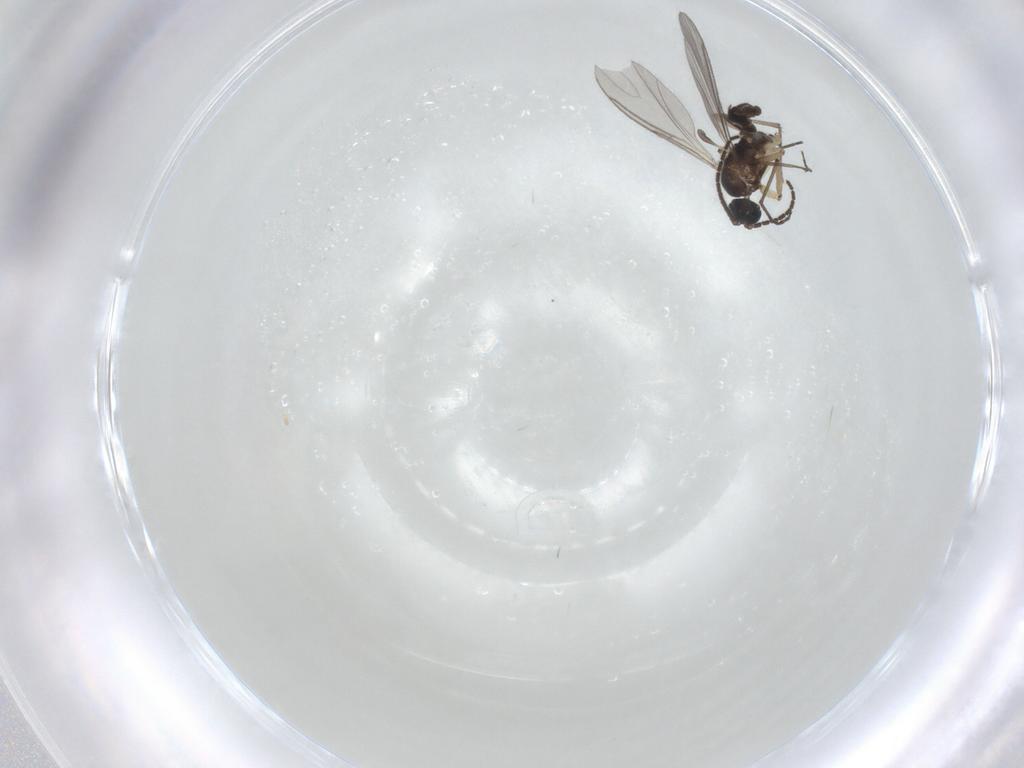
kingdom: Animalia
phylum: Arthropoda
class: Insecta
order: Diptera
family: Sciaridae
